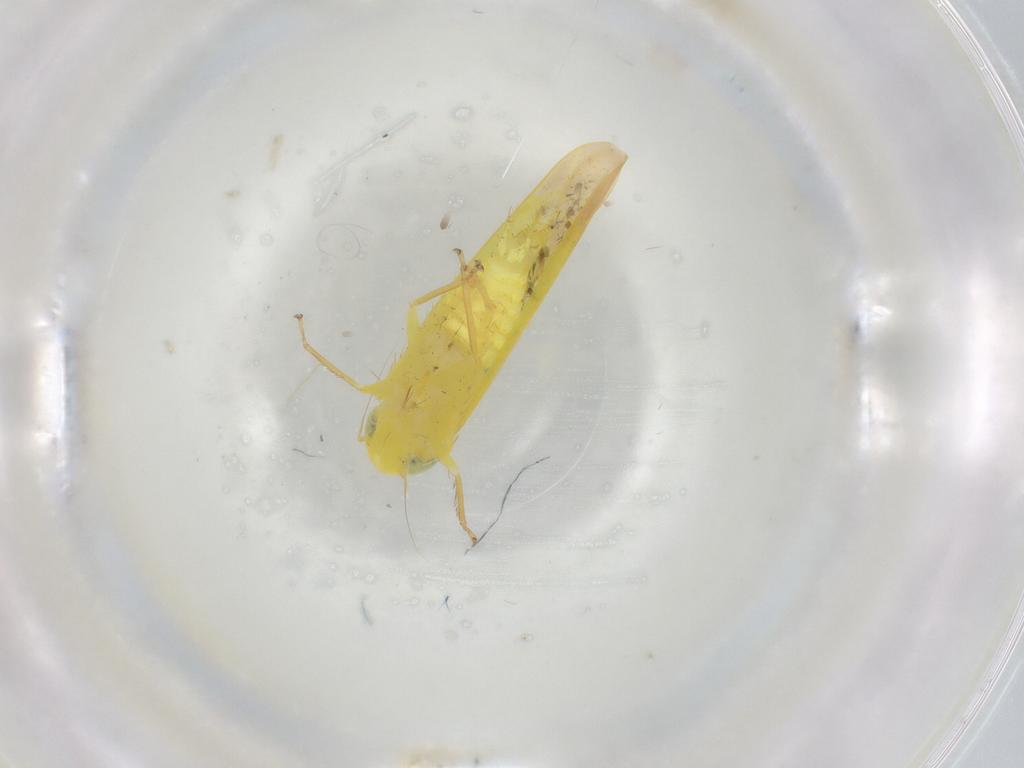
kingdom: Animalia
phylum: Arthropoda
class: Insecta
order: Hemiptera
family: Cicadellidae
